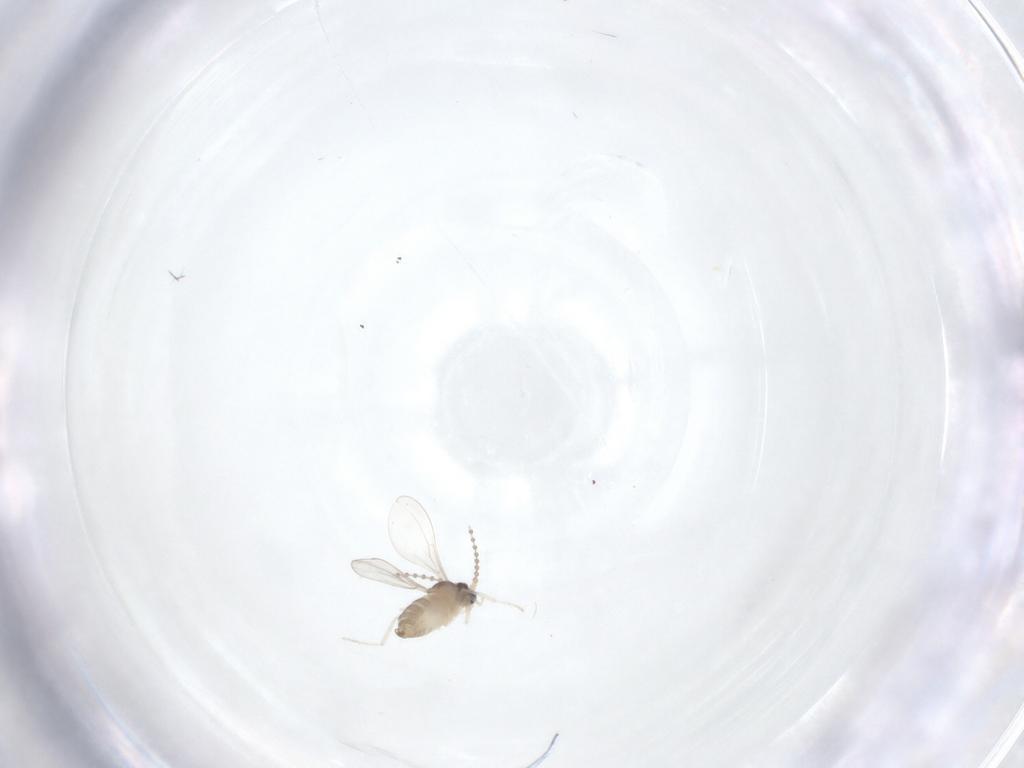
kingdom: Animalia
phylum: Arthropoda
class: Insecta
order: Diptera
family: Cecidomyiidae
